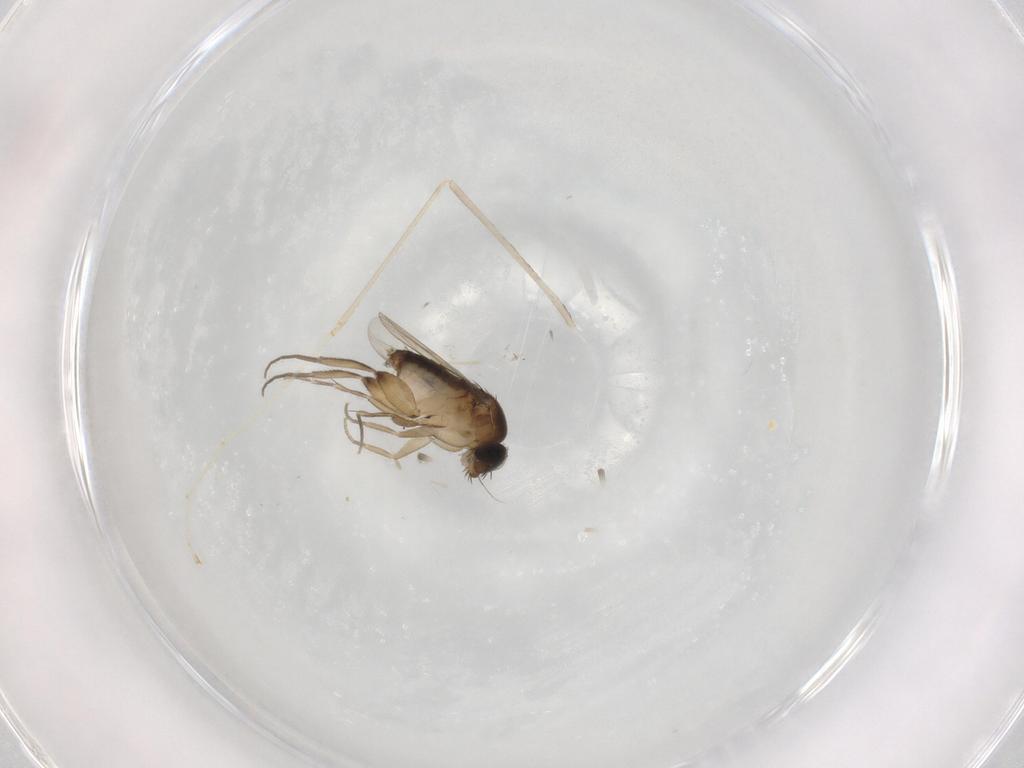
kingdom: Animalia
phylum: Arthropoda
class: Insecta
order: Diptera
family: Phoridae
